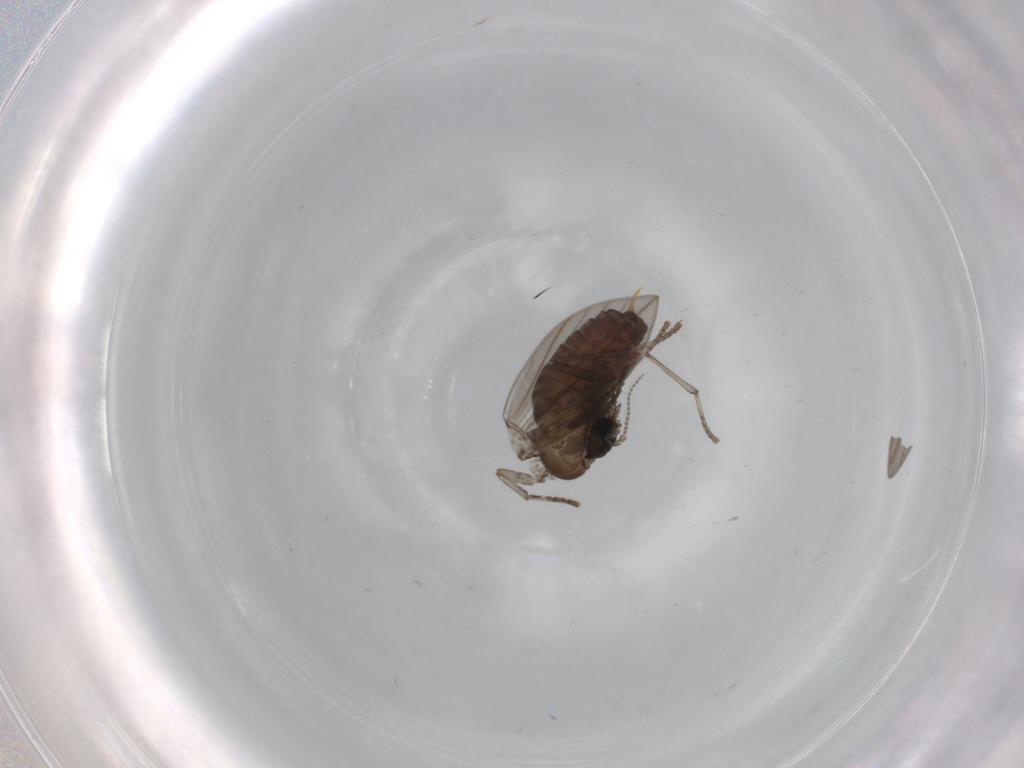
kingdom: Animalia
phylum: Arthropoda
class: Insecta
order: Diptera
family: Psychodidae
